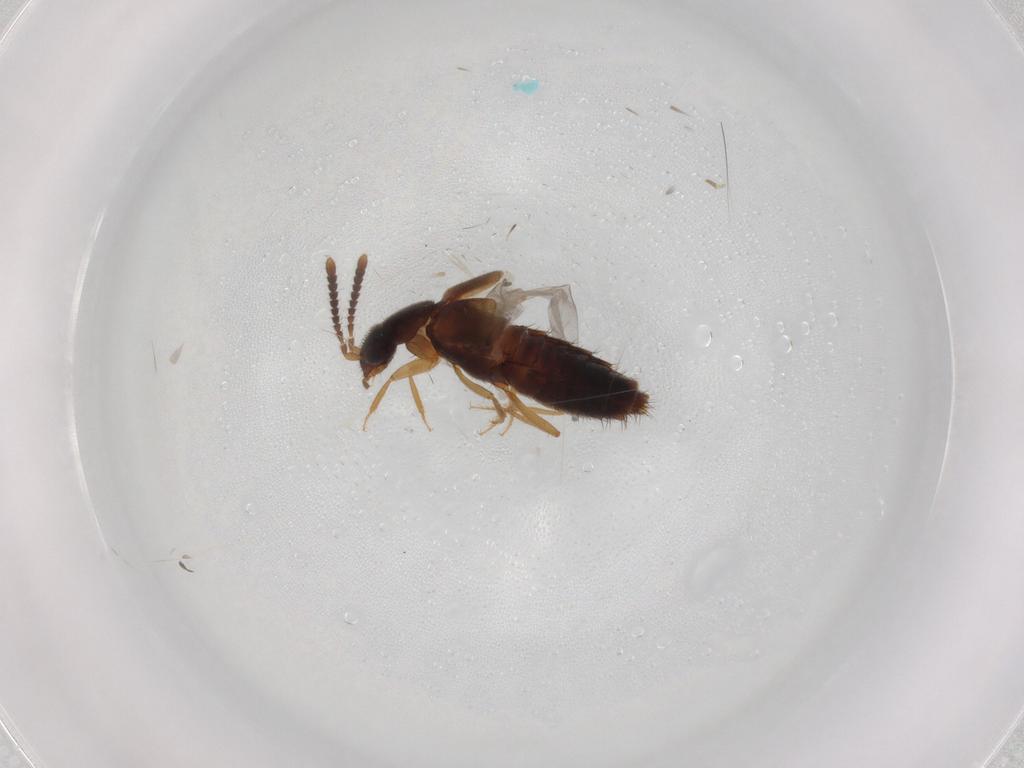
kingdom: Animalia
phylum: Arthropoda
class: Insecta
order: Coleoptera
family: Staphylinidae
